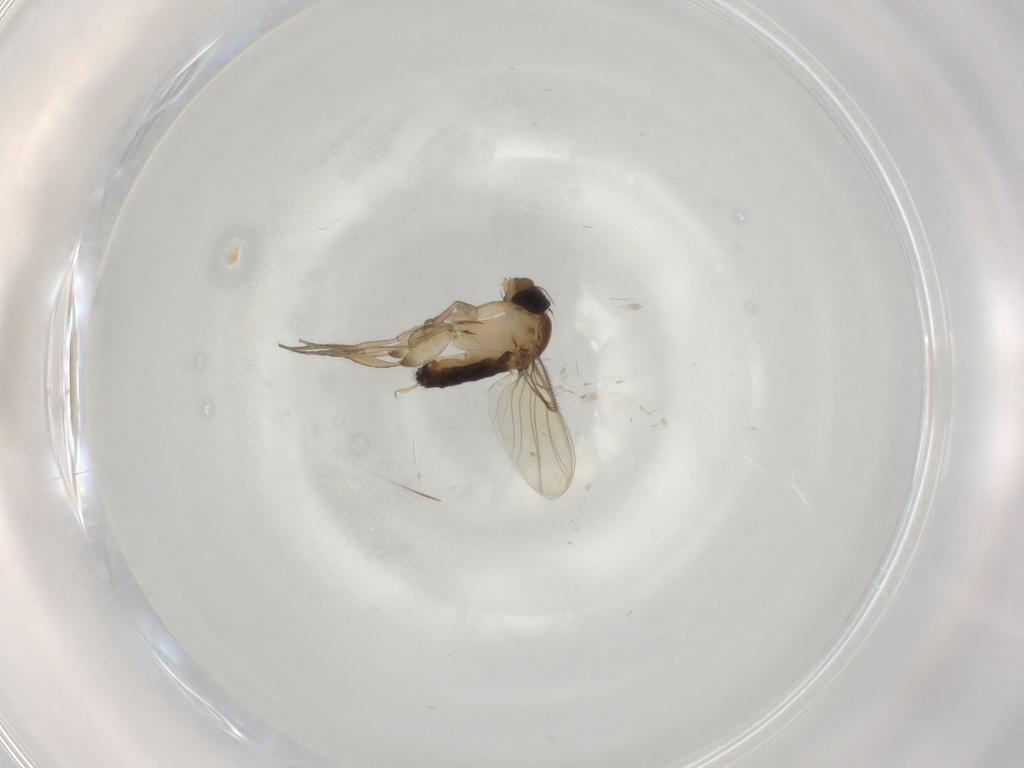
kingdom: Animalia
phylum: Arthropoda
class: Insecta
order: Diptera
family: Phoridae
